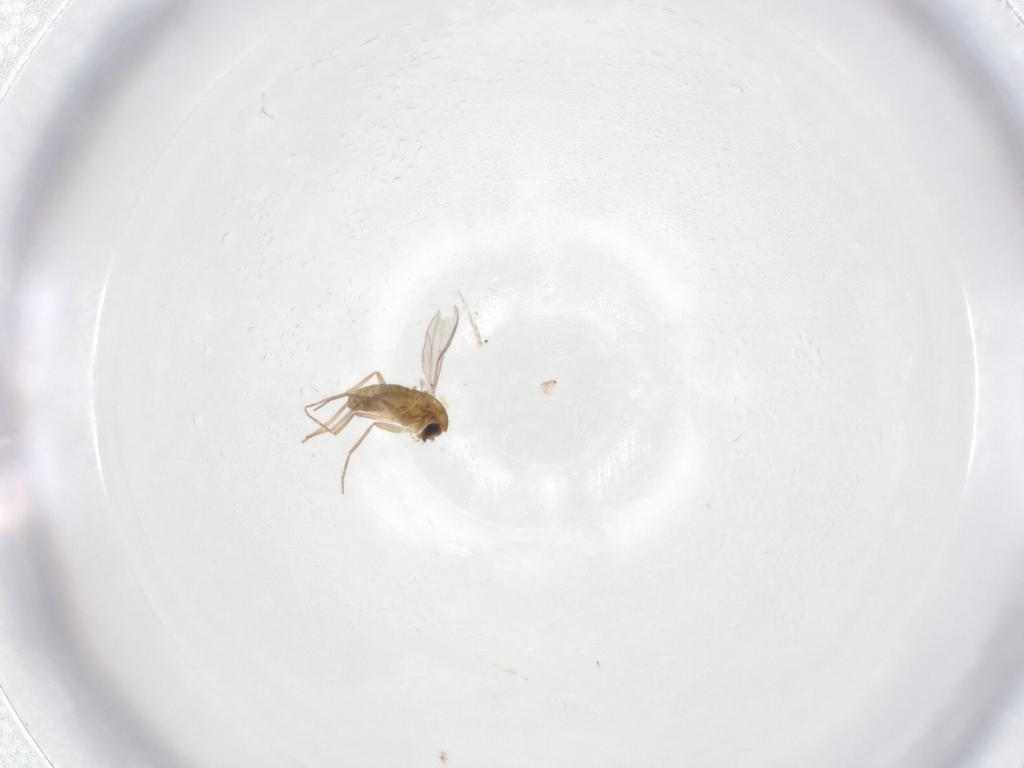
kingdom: Animalia
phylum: Arthropoda
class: Insecta
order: Diptera
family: Chironomidae
